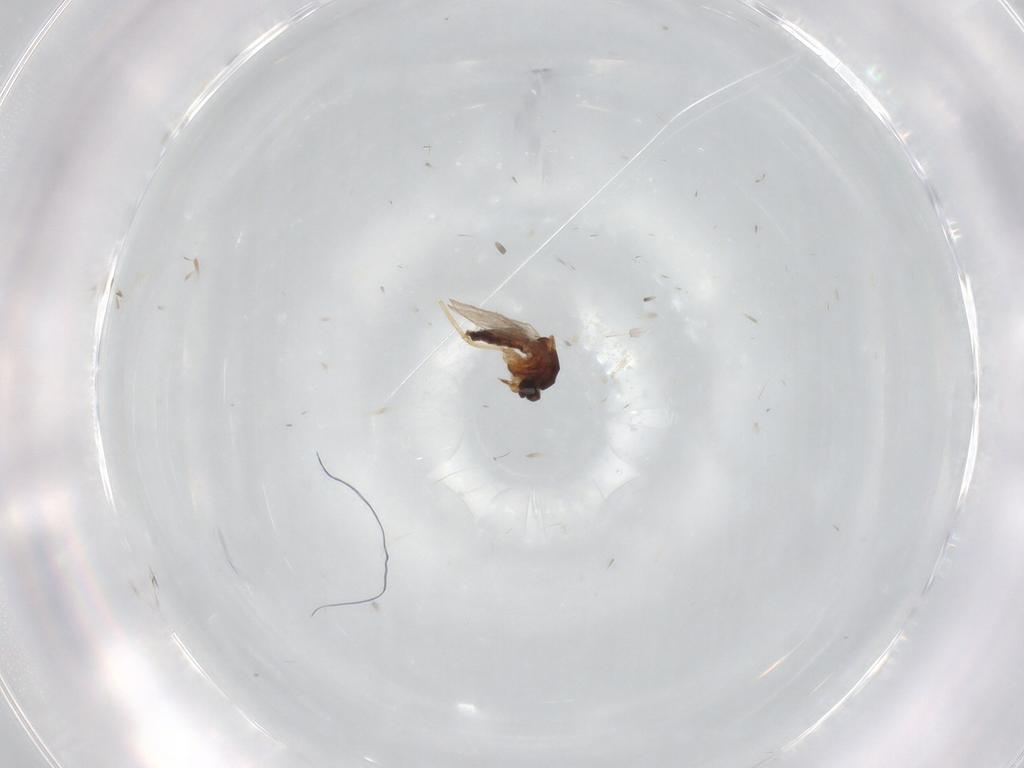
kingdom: Animalia
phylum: Arthropoda
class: Insecta
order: Diptera
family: Ceratopogonidae
